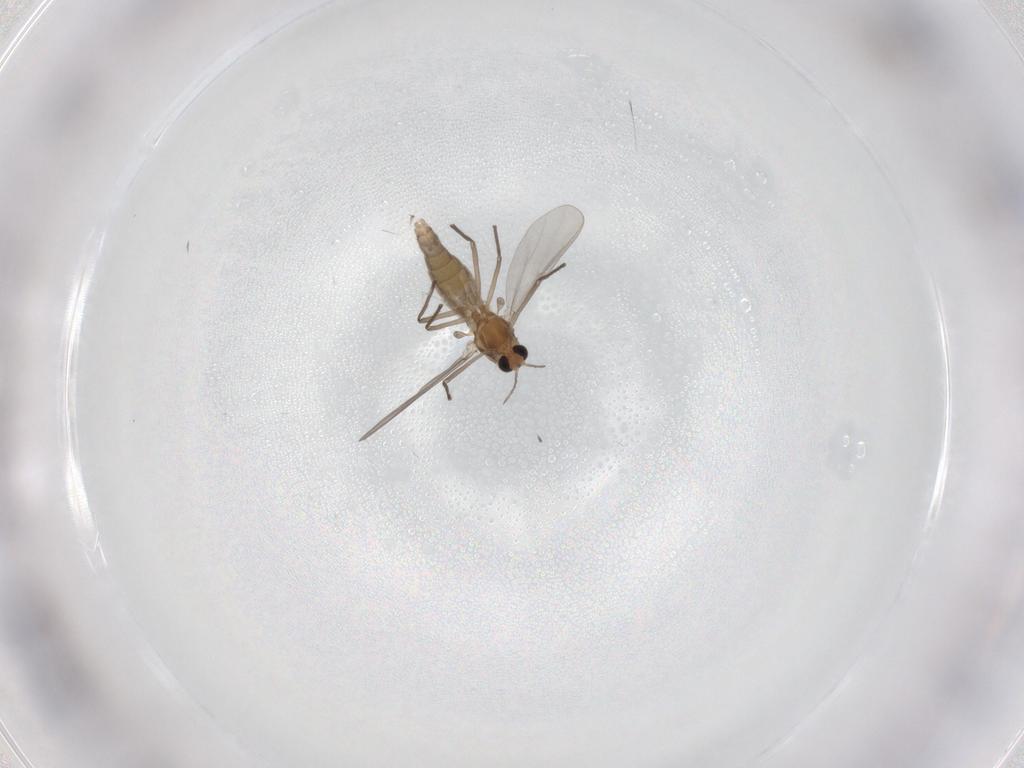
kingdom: Animalia
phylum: Arthropoda
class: Insecta
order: Diptera
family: Chironomidae
